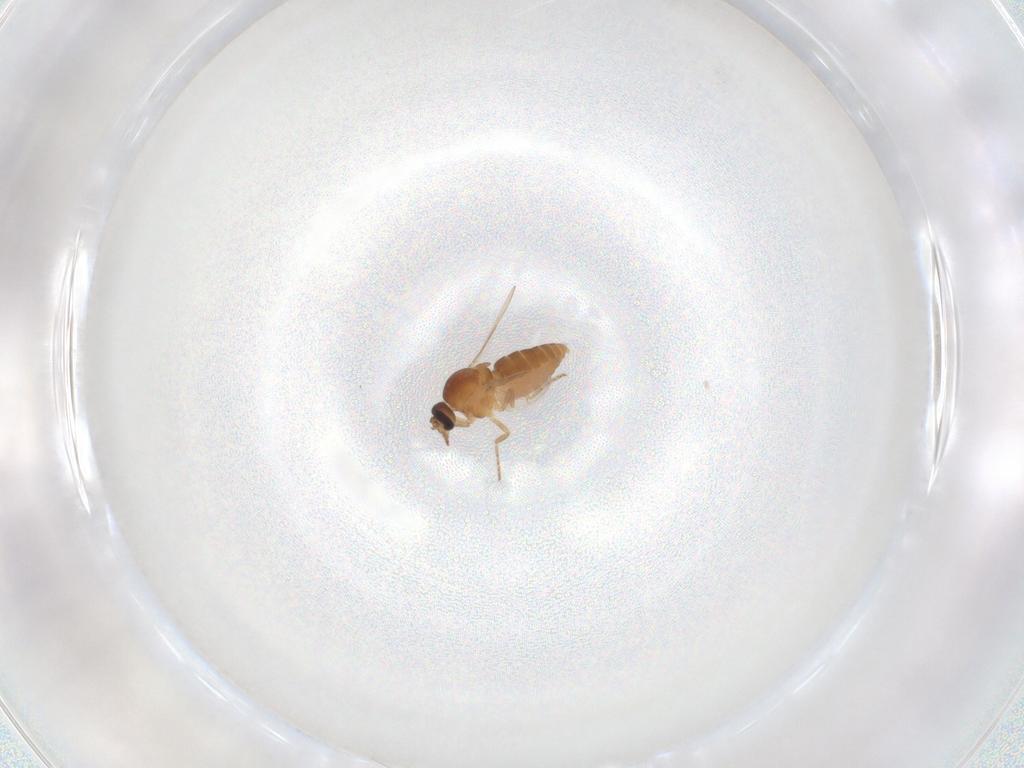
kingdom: Animalia
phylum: Arthropoda
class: Insecta
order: Diptera
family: Ceratopogonidae
